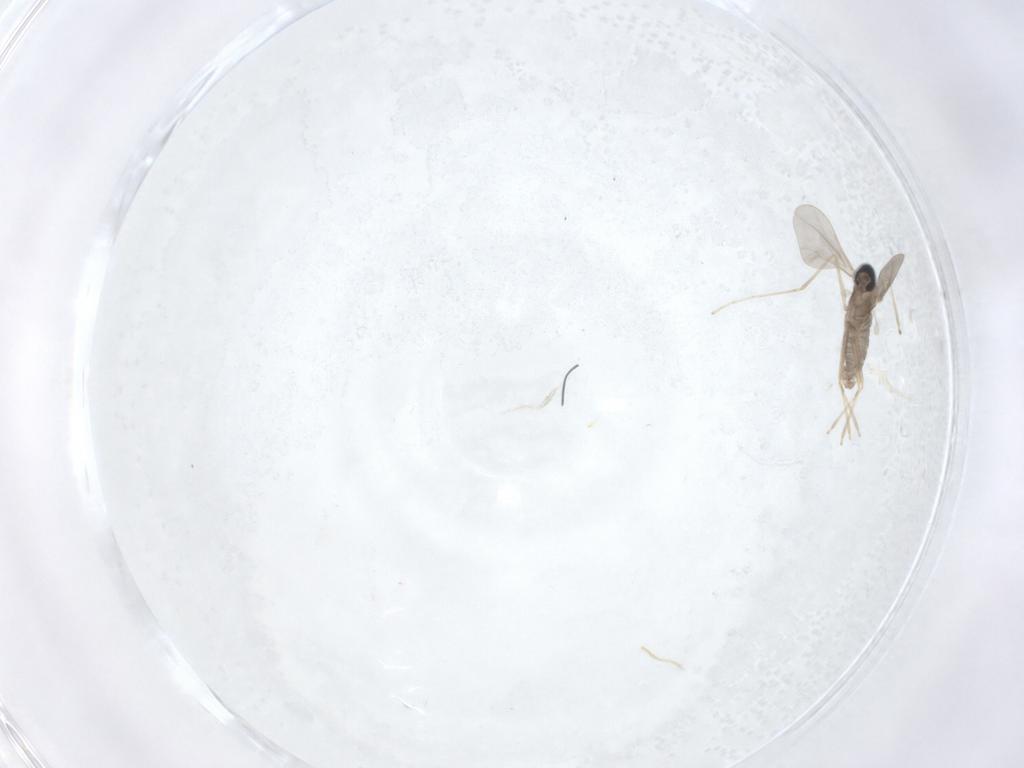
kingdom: Animalia
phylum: Arthropoda
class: Insecta
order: Diptera
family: Cecidomyiidae
